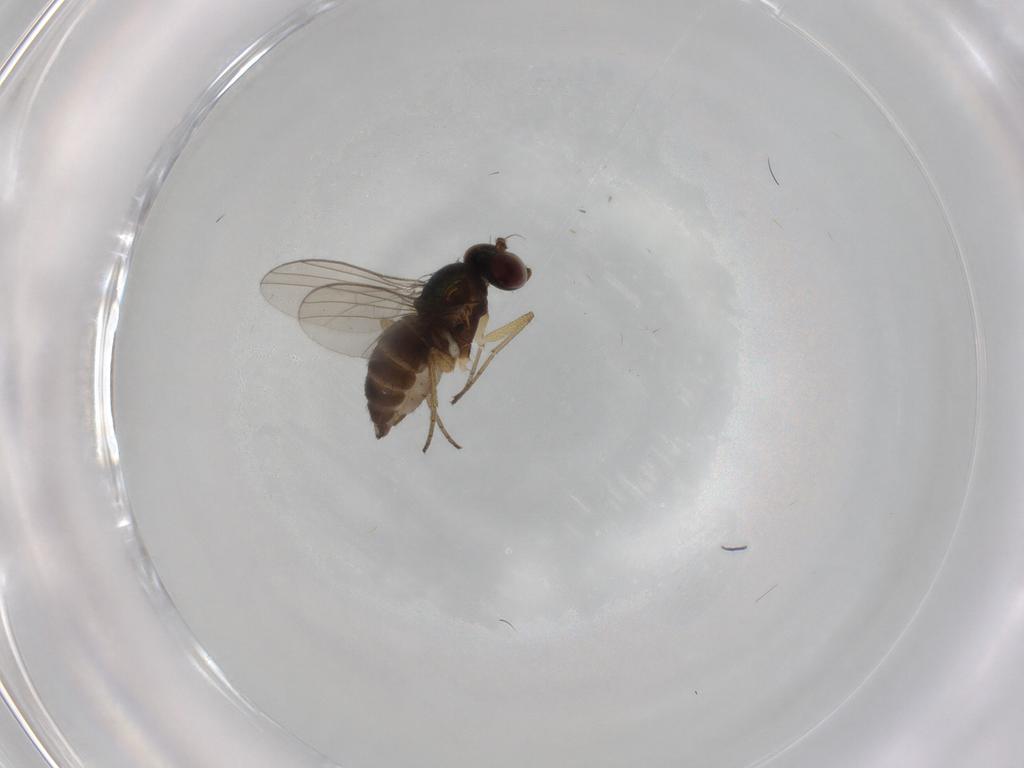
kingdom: Animalia
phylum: Arthropoda
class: Insecta
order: Diptera
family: Dolichopodidae
